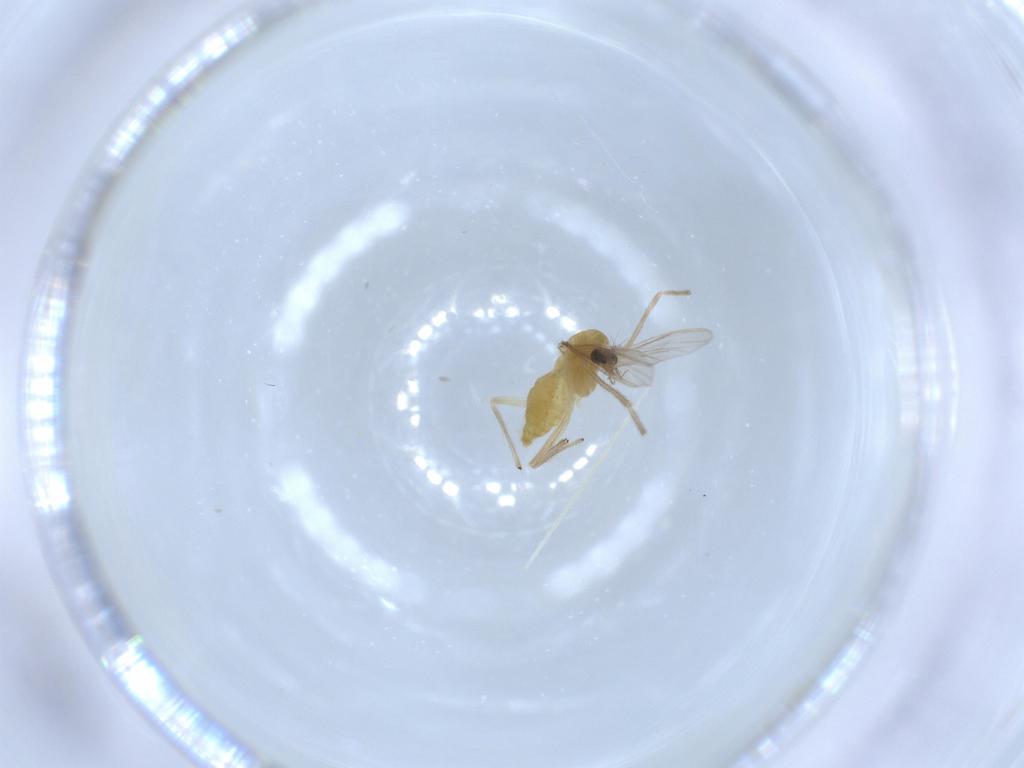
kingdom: Animalia
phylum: Arthropoda
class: Insecta
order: Diptera
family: Chironomidae
